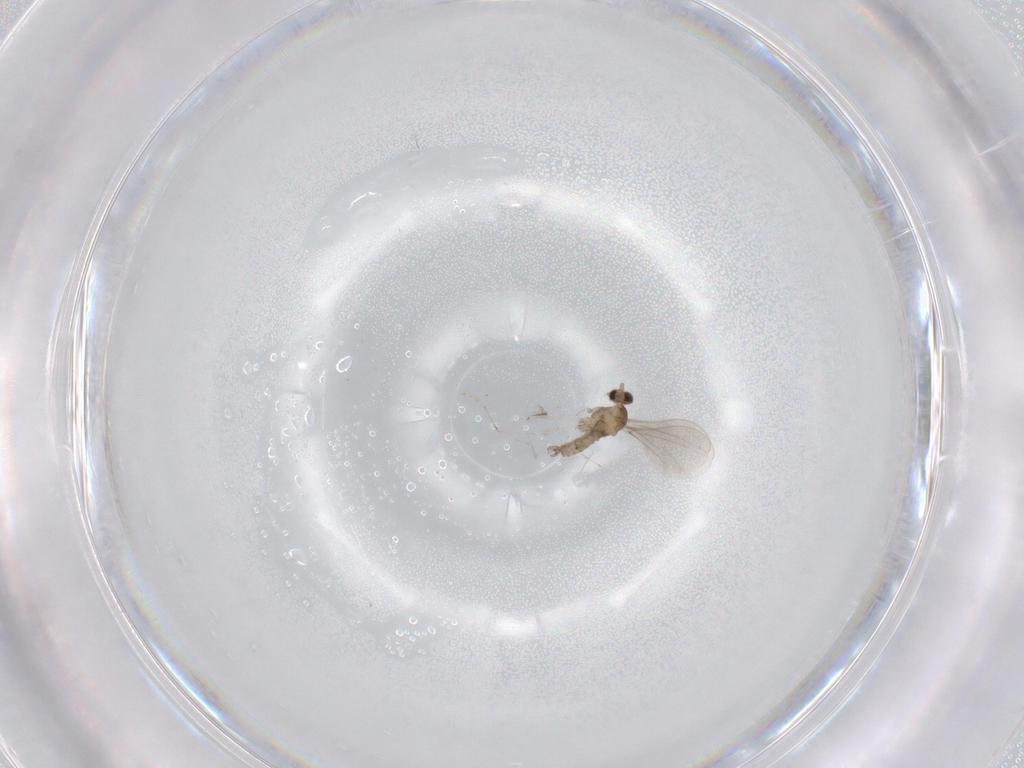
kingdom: Animalia
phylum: Arthropoda
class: Insecta
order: Diptera
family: Cecidomyiidae
